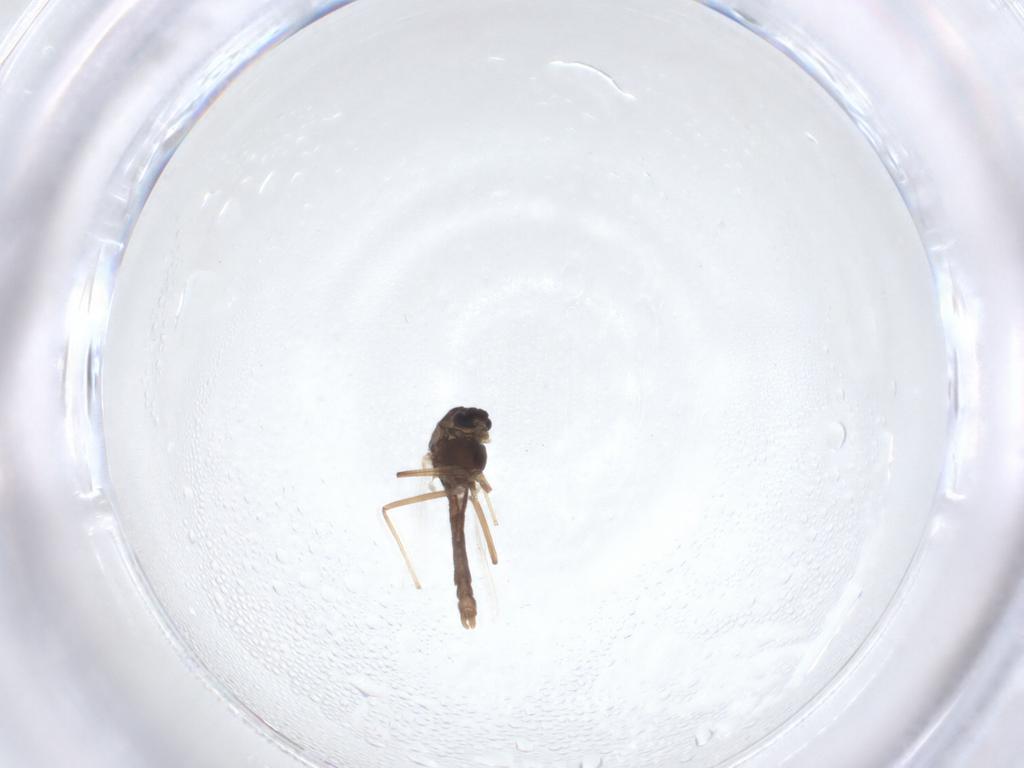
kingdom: Animalia
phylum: Arthropoda
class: Insecta
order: Diptera
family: Chironomidae
